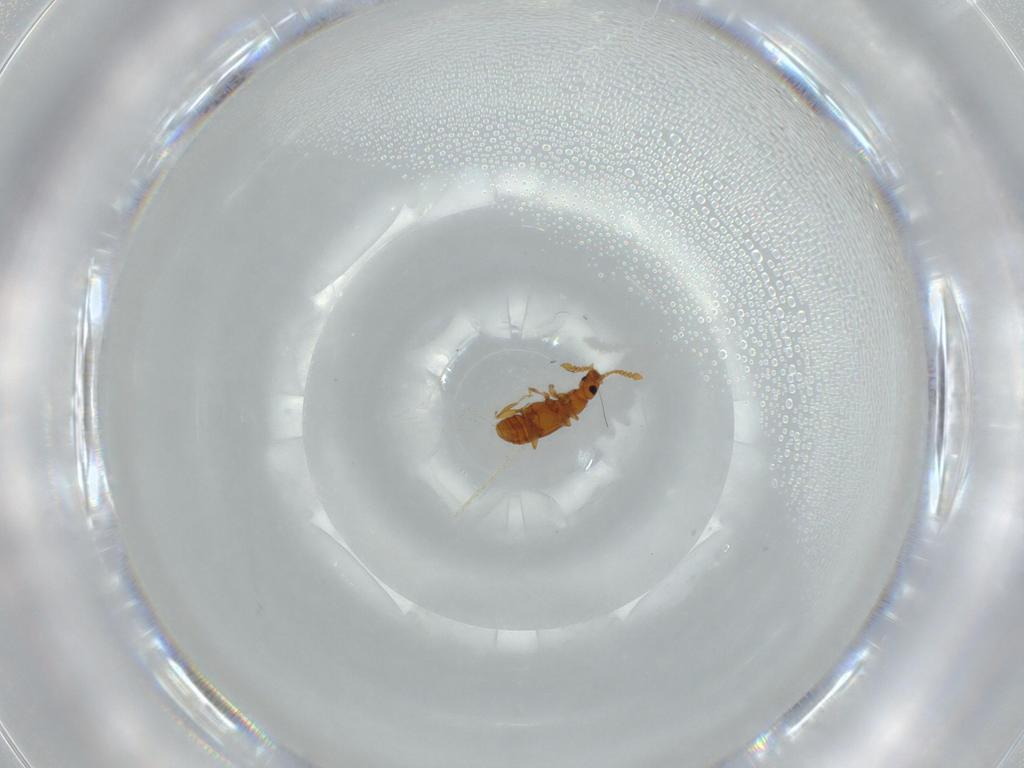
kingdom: Animalia
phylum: Arthropoda
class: Insecta
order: Coleoptera
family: Staphylinidae
